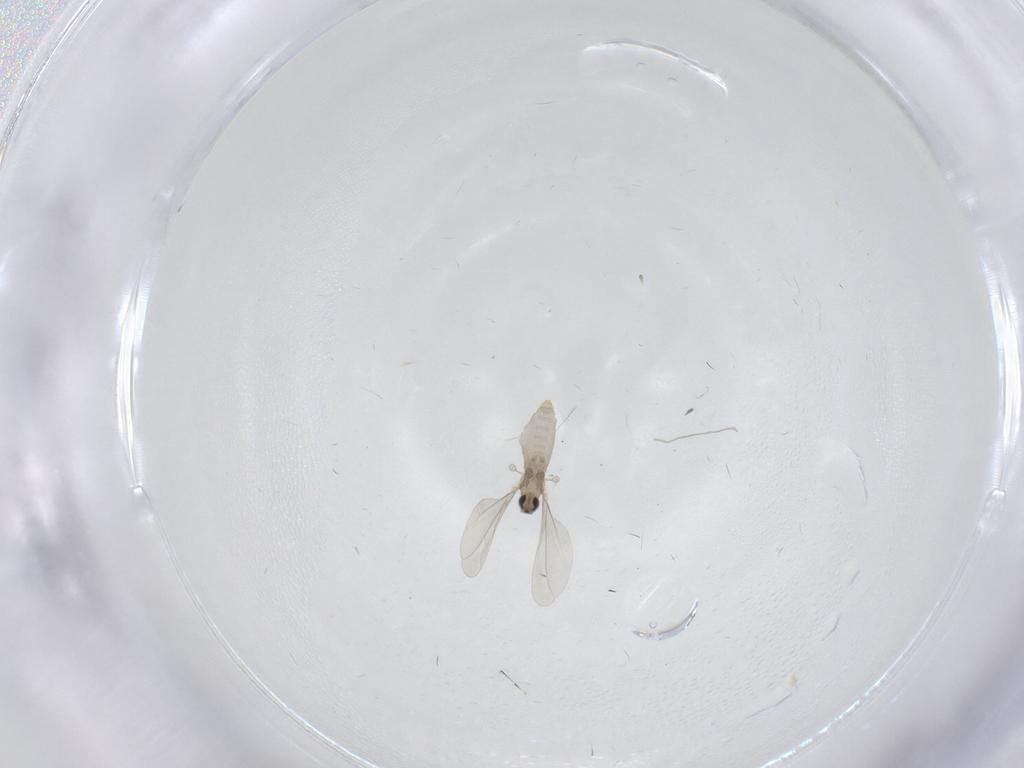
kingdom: Animalia
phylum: Arthropoda
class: Insecta
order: Diptera
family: Cecidomyiidae
